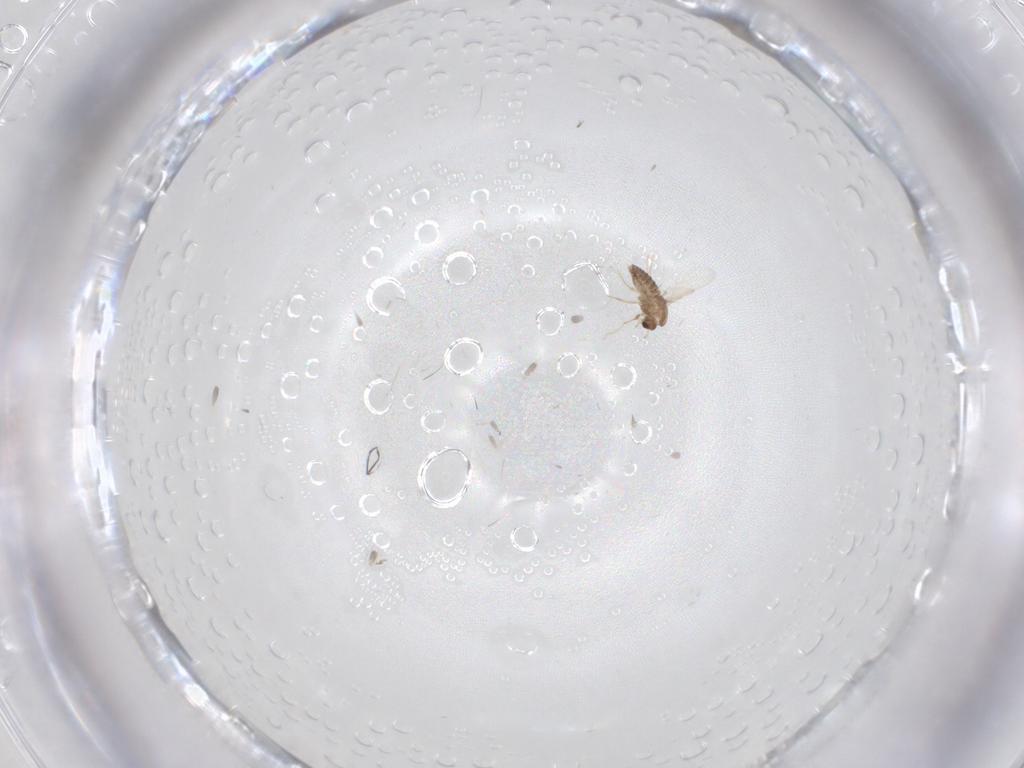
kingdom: Animalia
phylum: Arthropoda
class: Insecta
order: Diptera
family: Chironomidae
